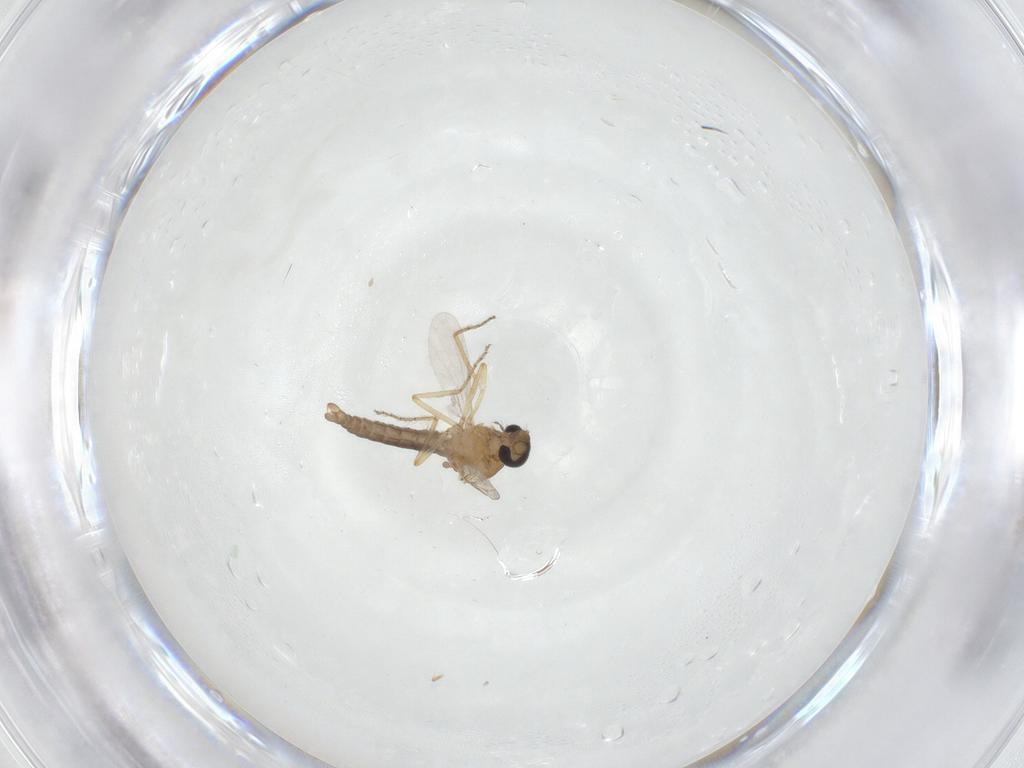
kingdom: Animalia
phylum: Arthropoda
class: Insecta
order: Diptera
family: Ceratopogonidae
